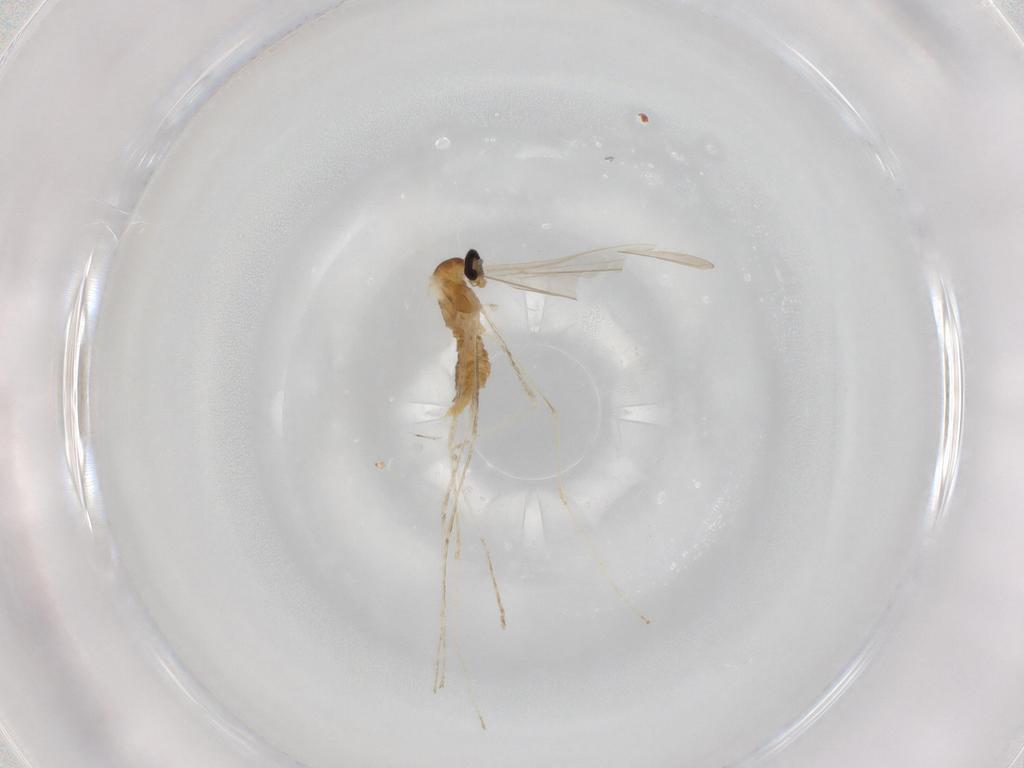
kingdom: Animalia
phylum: Arthropoda
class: Insecta
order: Diptera
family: Cecidomyiidae
